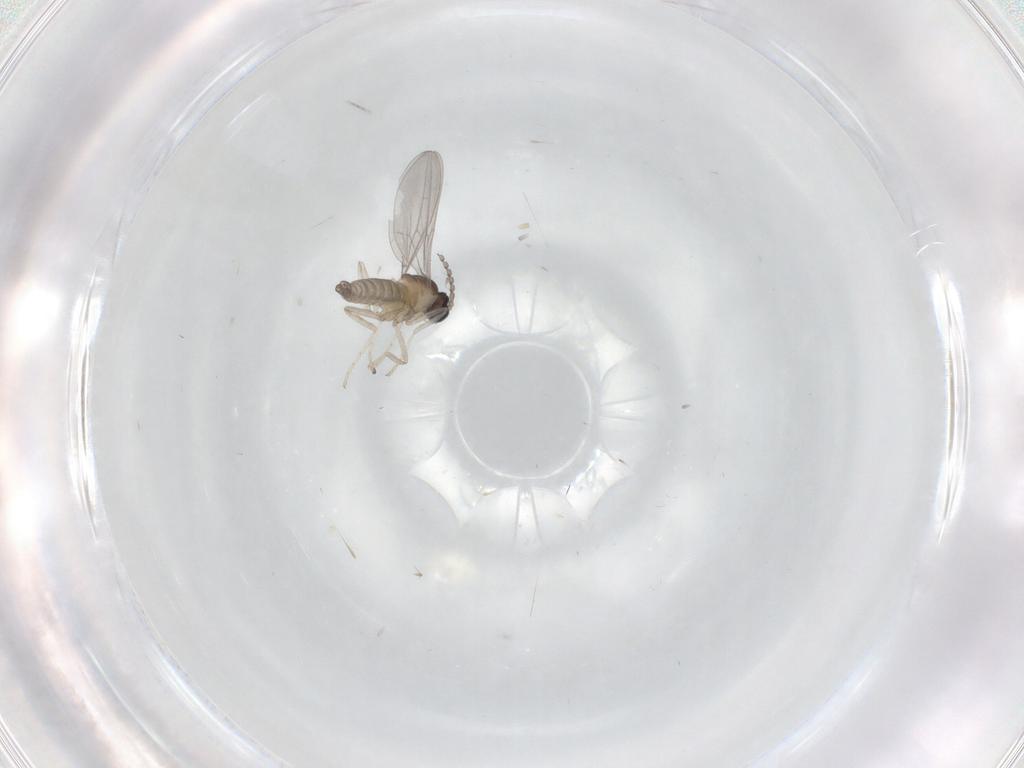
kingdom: Animalia
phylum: Arthropoda
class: Insecta
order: Diptera
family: Cecidomyiidae
